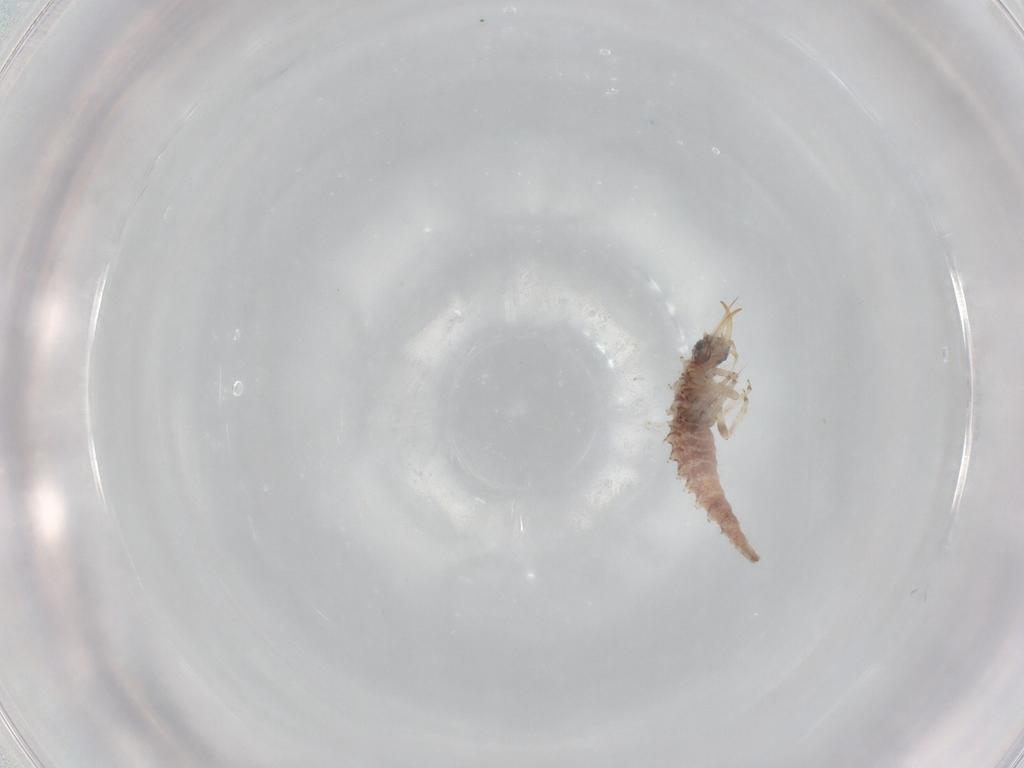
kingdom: Animalia
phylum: Arthropoda
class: Insecta
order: Neuroptera
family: Chrysopidae
